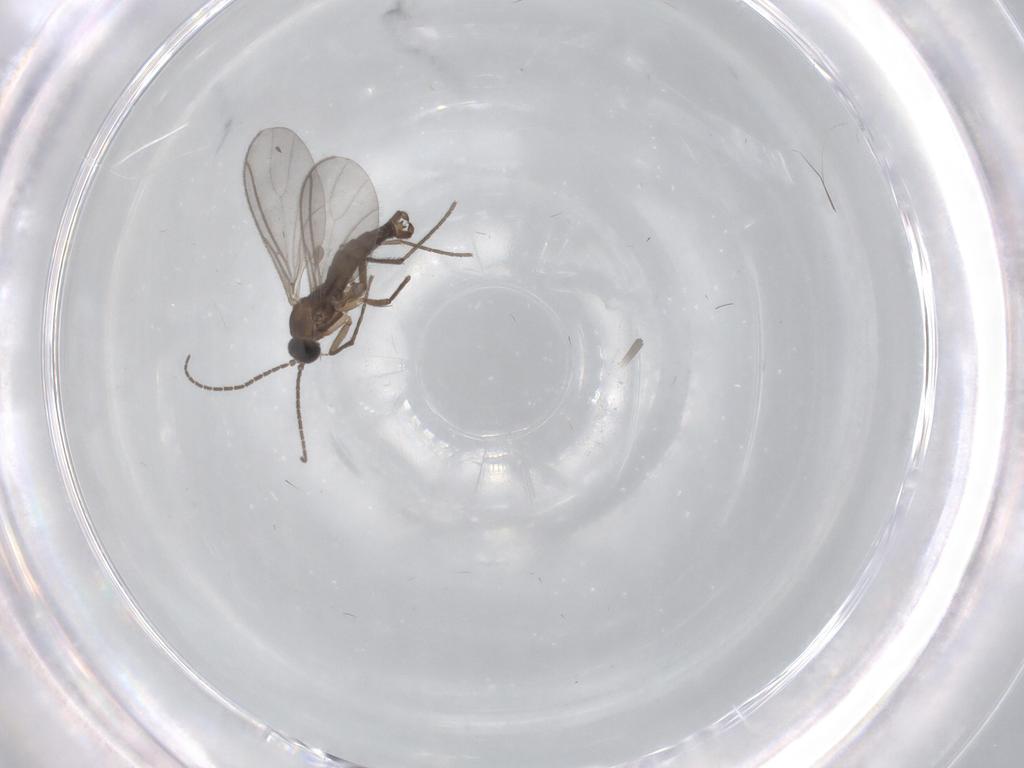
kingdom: Animalia
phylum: Arthropoda
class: Insecta
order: Diptera
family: Sciaridae
